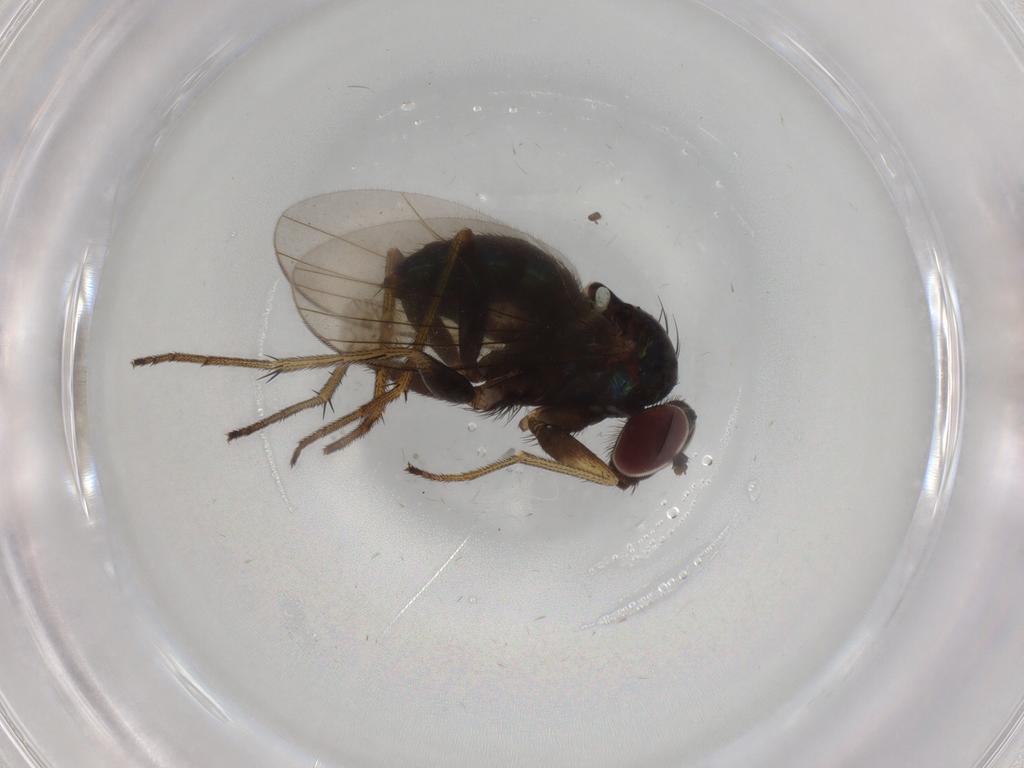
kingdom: Animalia
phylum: Arthropoda
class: Insecta
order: Diptera
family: Dolichopodidae
